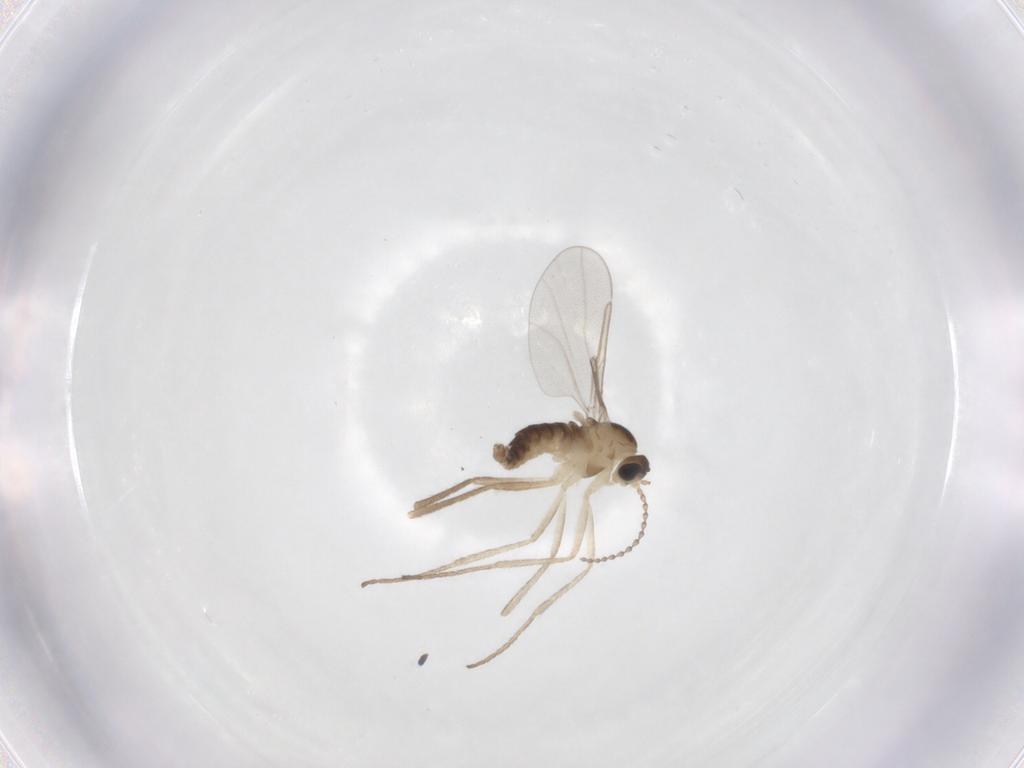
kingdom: Animalia
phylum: Arthropoda
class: Insecta
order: Diptera
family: Cecidomyiidae
